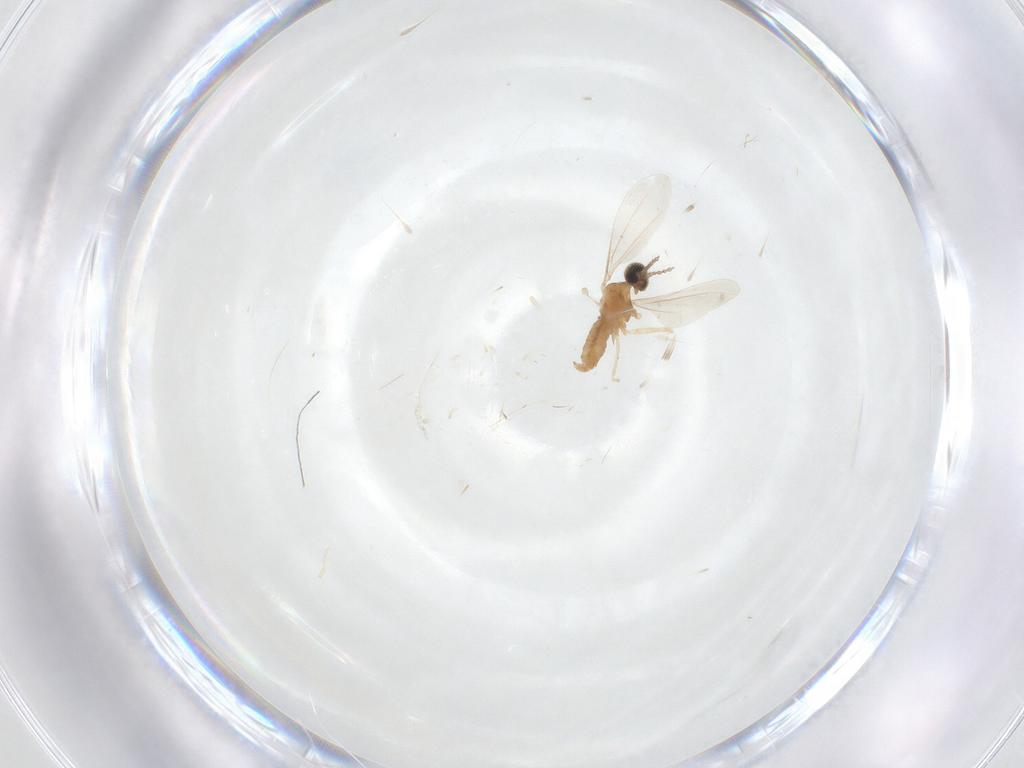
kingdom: Animalia
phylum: Arthropoda
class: Insecta
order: Diptera
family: Cecidomyiidae
